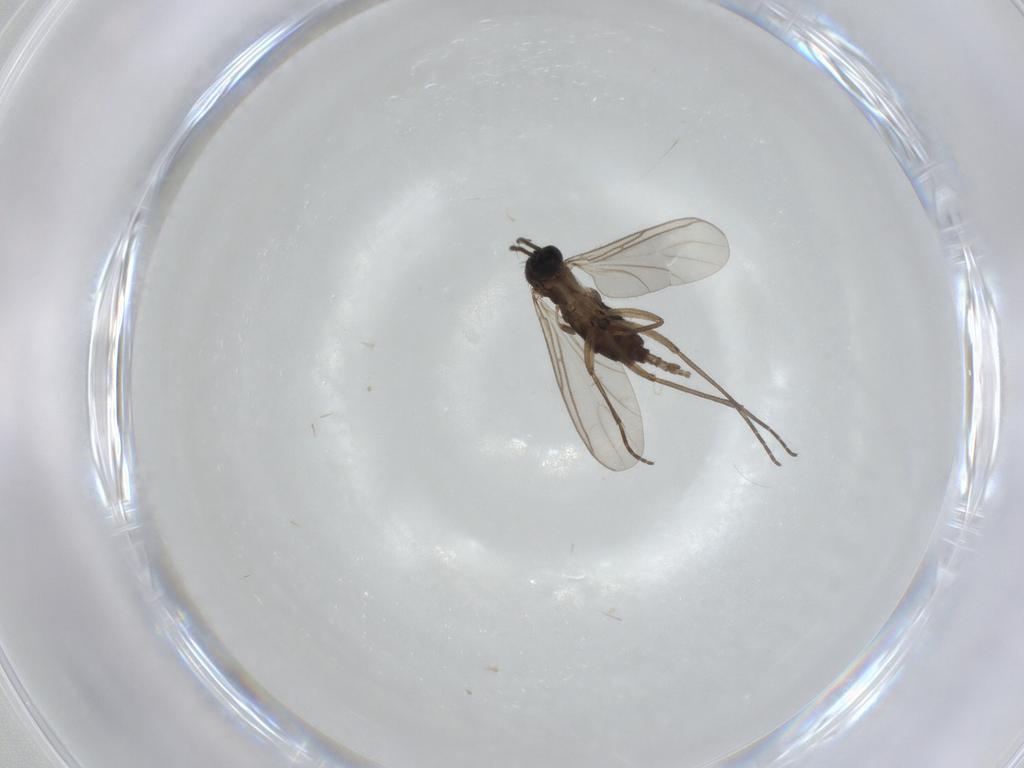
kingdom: Animalia
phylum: Arthropoda
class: Insecta
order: Diptera
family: Sciaridae
